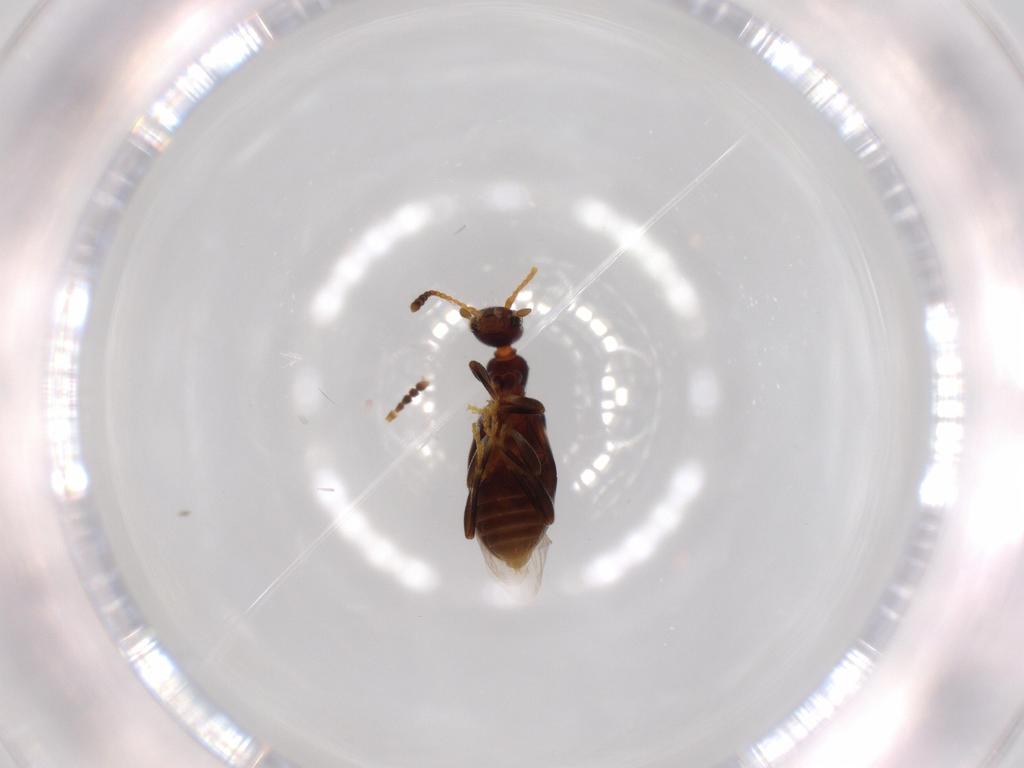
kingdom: Animalia
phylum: Arthropoda
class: Insecta
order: Coleoptera
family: Anthicidae
